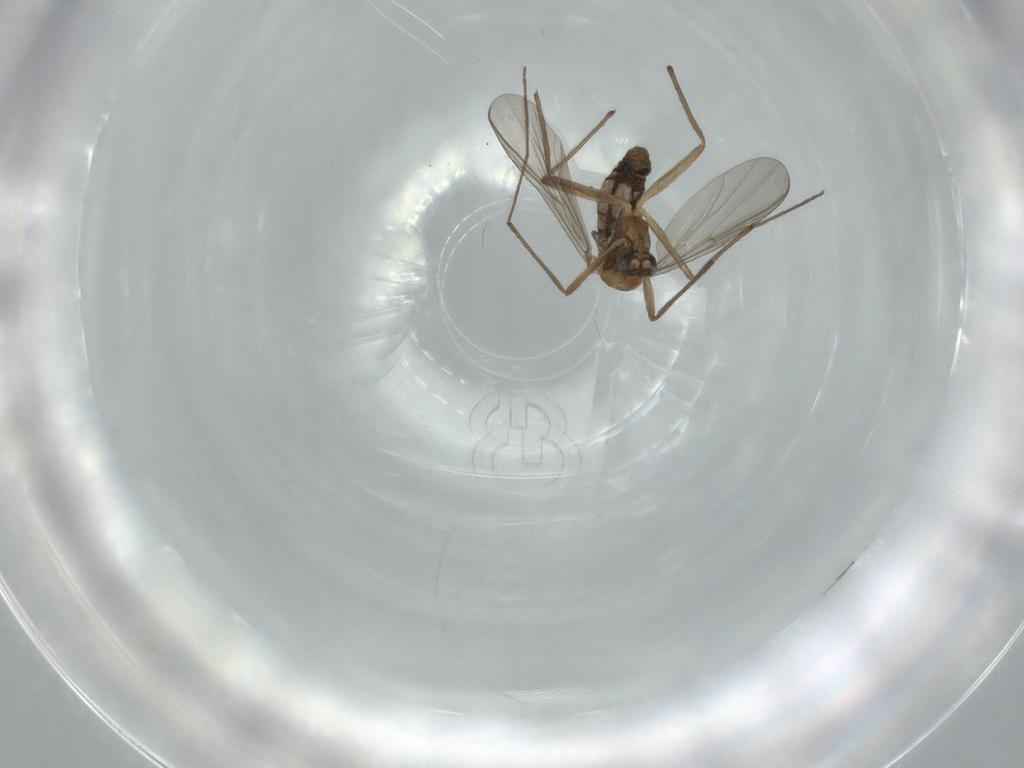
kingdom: Animalia
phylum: Arthropoda
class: Insecta
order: Diptera
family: Chironomidae
